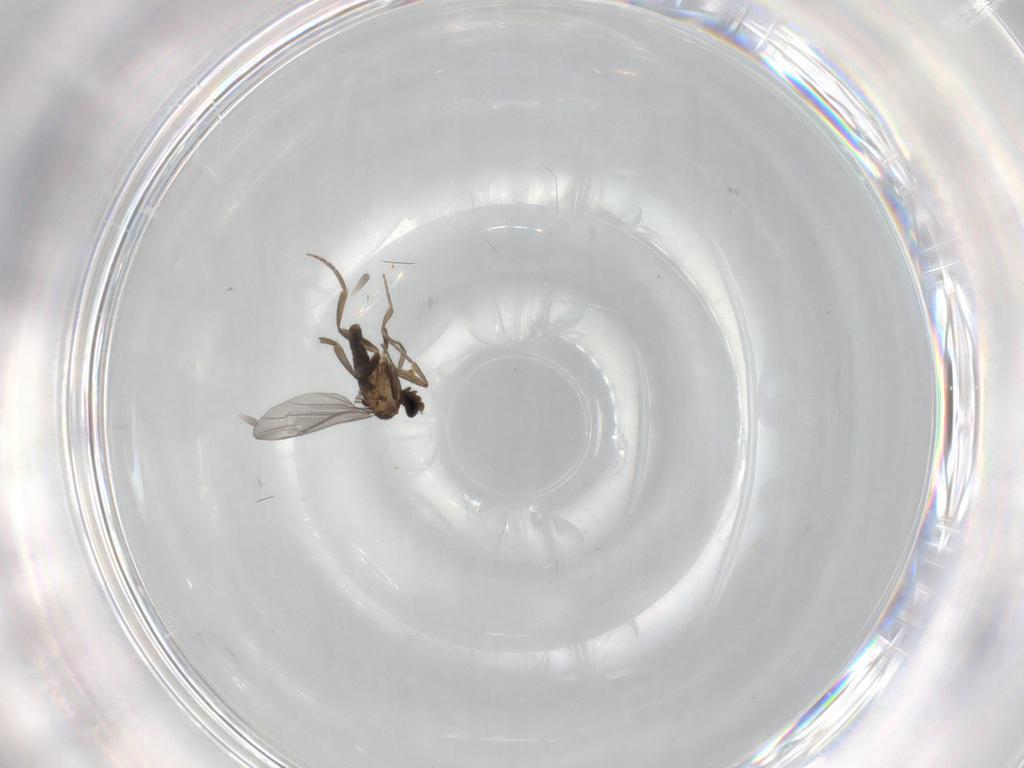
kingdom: Animalia
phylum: Arthropoda
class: Insecta
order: Diptera
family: Phoridae
